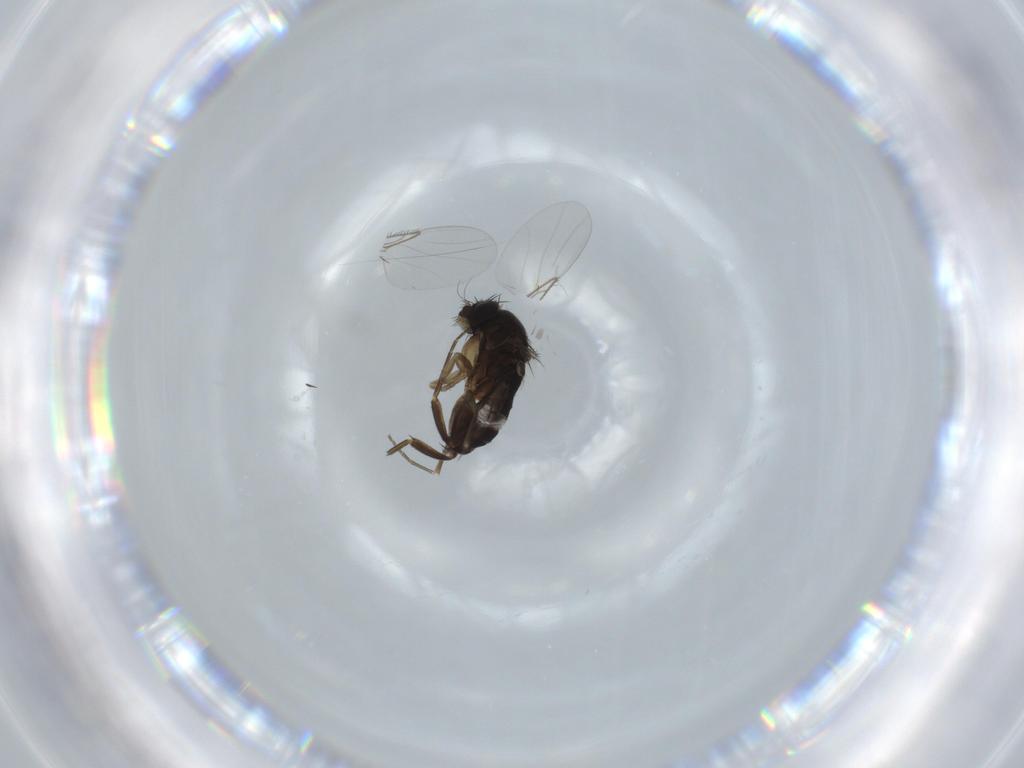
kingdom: Animalia
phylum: Arthropoda
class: Insecta
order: Diptera
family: Phoridae
